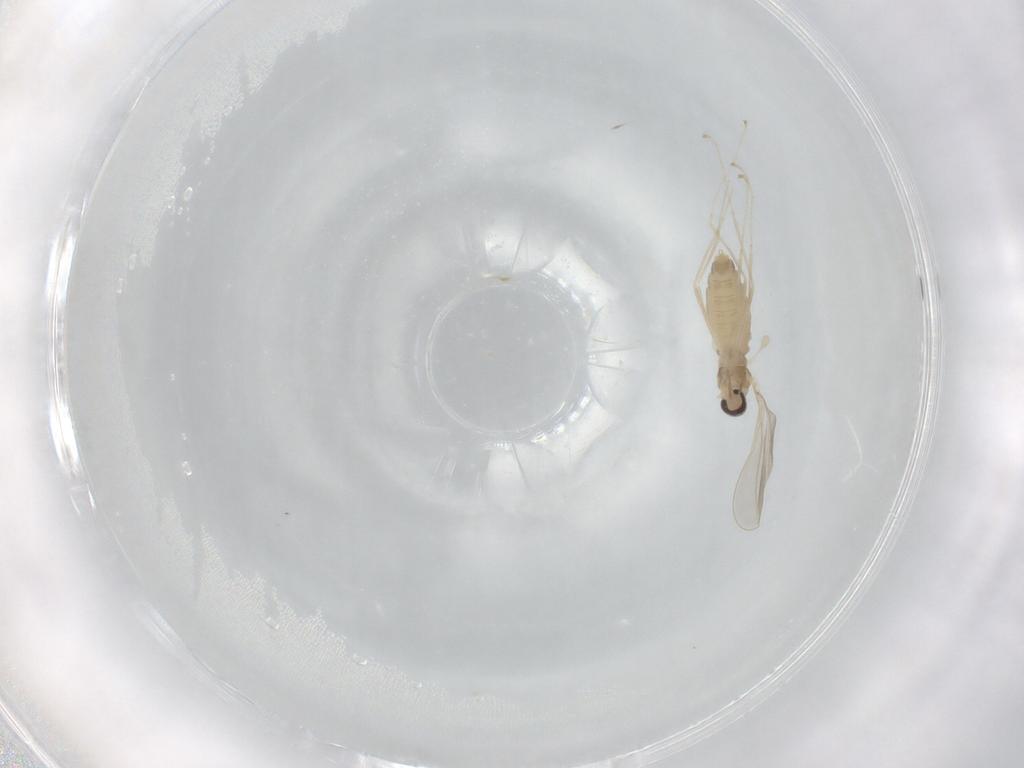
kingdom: Animalia
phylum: Arthropoda
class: Insecta
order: Diptera
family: Cecidomyiidae
